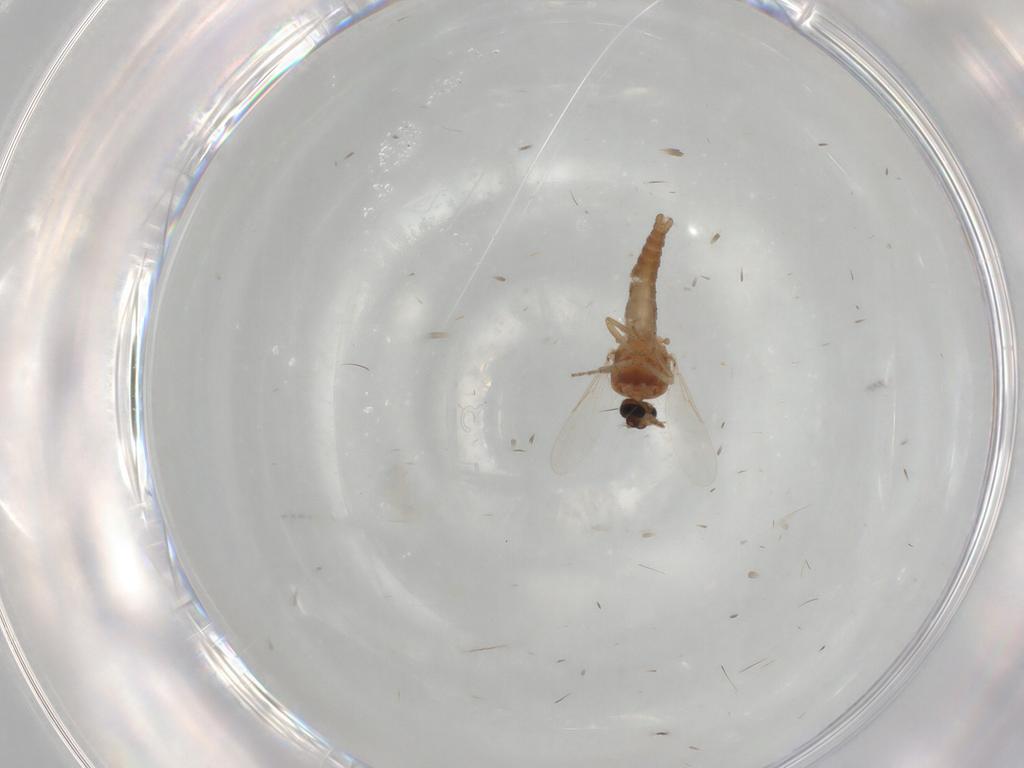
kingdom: Animalia
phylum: Arthropoda
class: Insecta
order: Diptera
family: Ceratopogonidae
